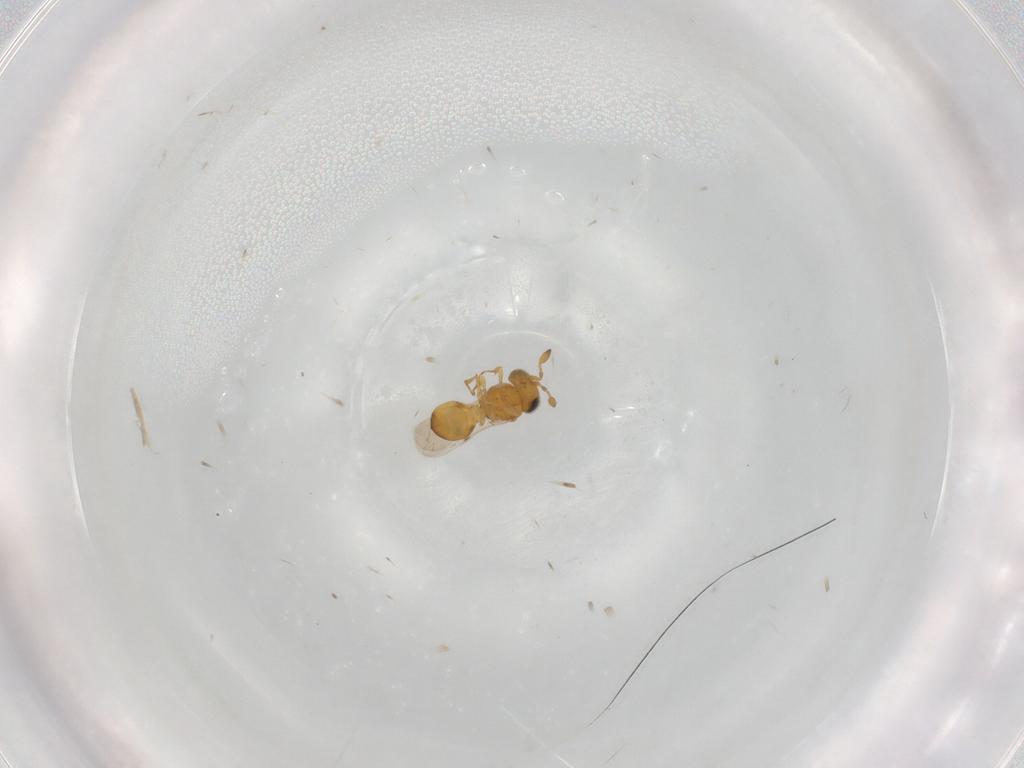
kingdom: Animalia
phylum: Arthropoda
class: Insecta
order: Hymenoptera
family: Scelionidae
